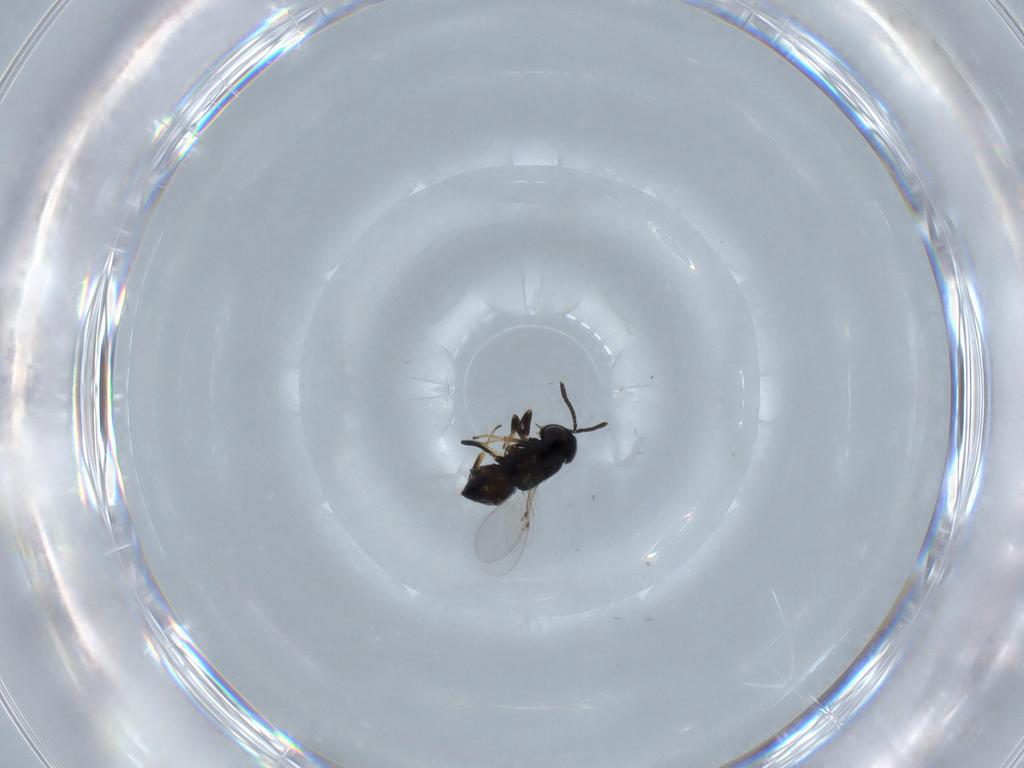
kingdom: Animalia
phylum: Arthropoda
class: Insecta
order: Hymenoptera
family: Encyrtidae
